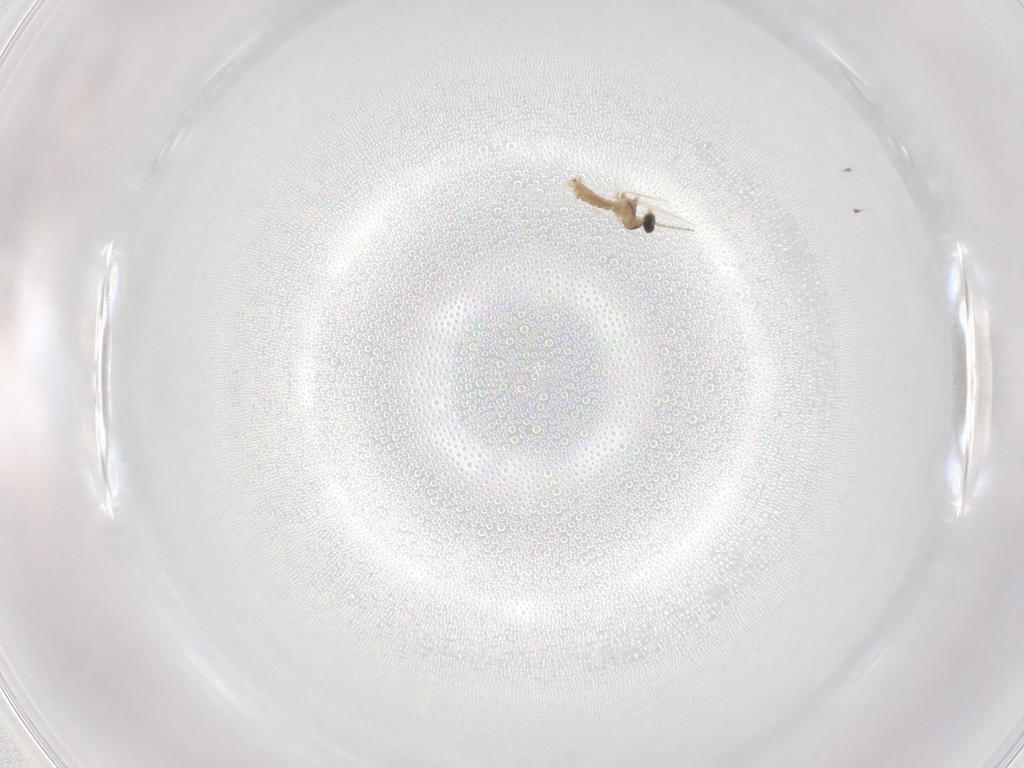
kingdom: Animalia
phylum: Arthropoda
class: Insecta
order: Diptera
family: Cecidomyiidae
